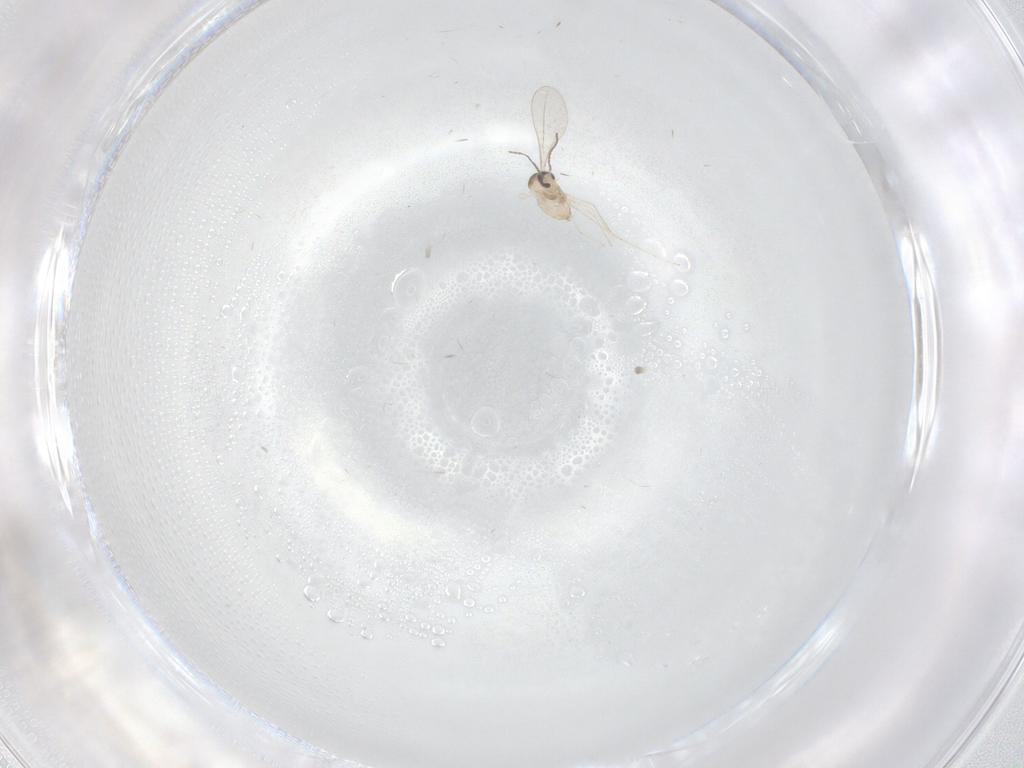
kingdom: Animalia
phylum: Arthropoda
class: Insecta
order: Diptera
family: Cecidomyiidae
